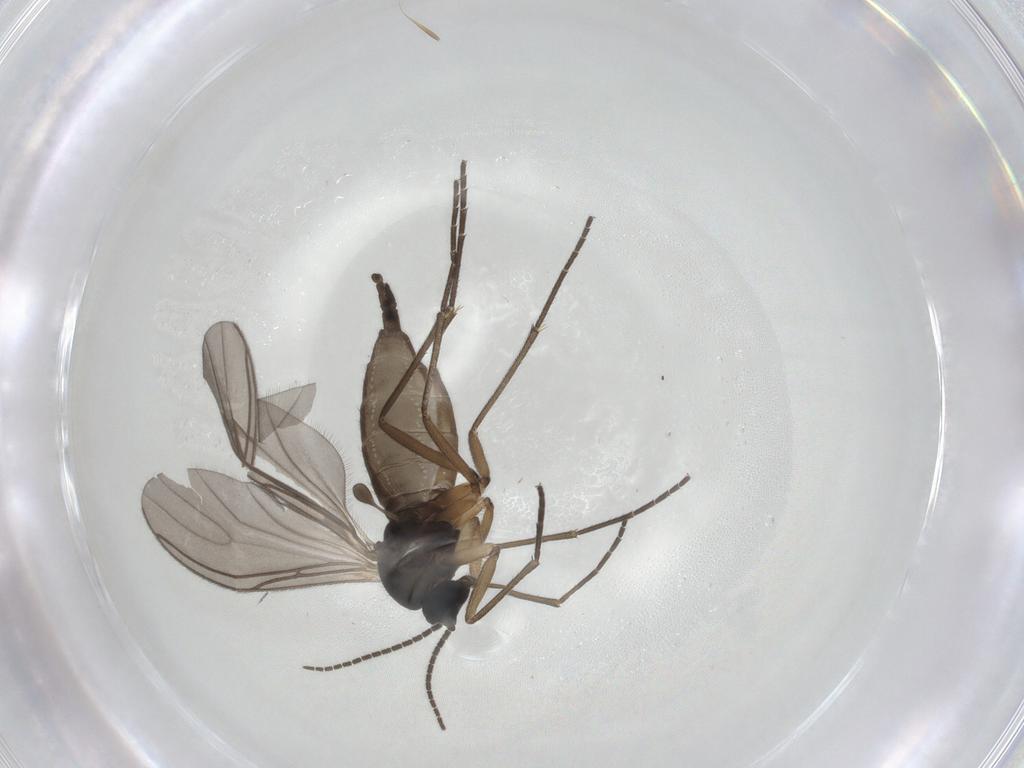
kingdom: Animalia
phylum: Arthropoda
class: Insecta
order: Diptera
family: Sciaridae
